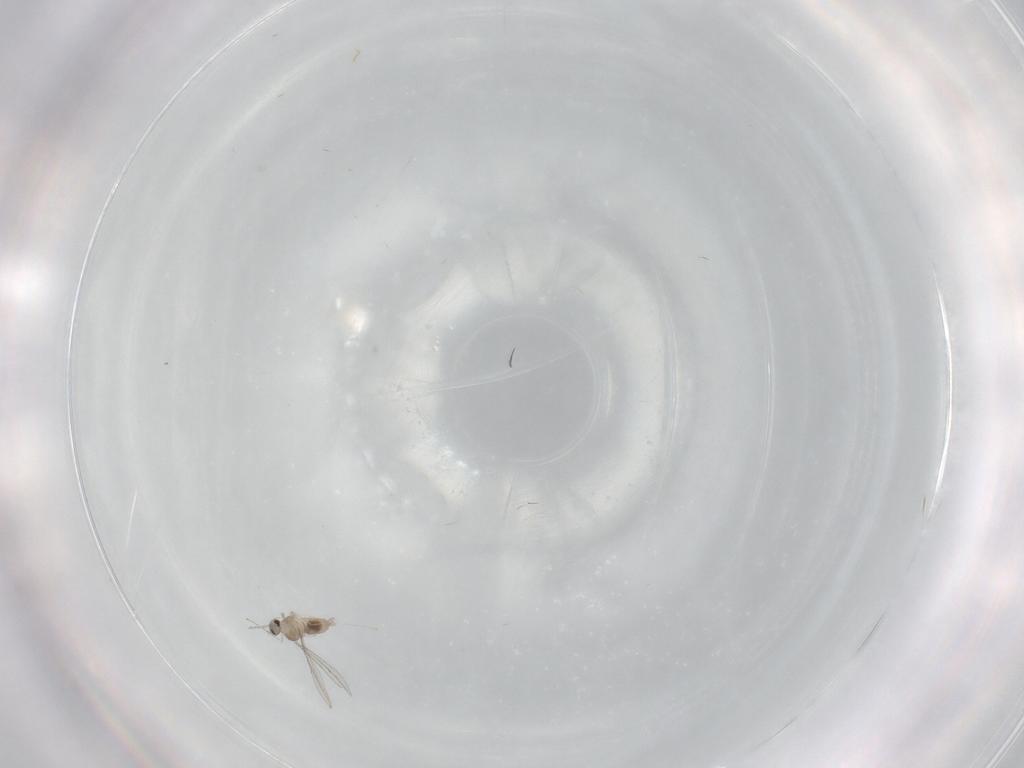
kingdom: Animalia
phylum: Arthropoda
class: Insecta
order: Diptera
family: Cecidomyiidae
